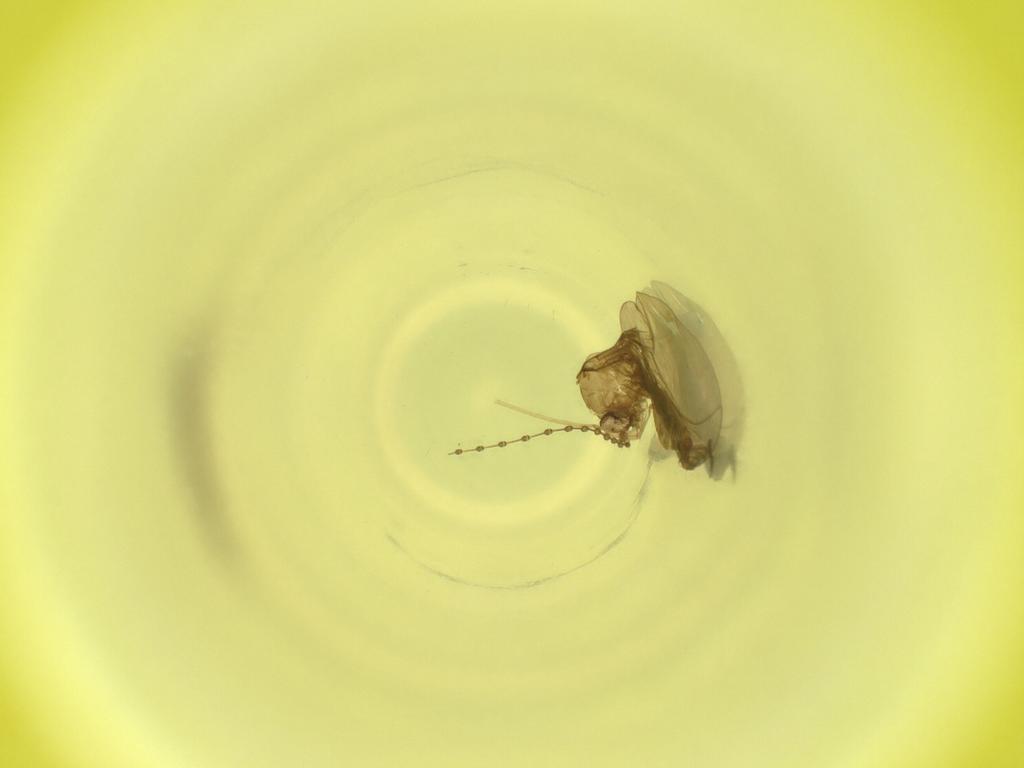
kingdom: Animalia
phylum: Arthropoda
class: Insecta
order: Diptera
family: Cecidomyiidae
